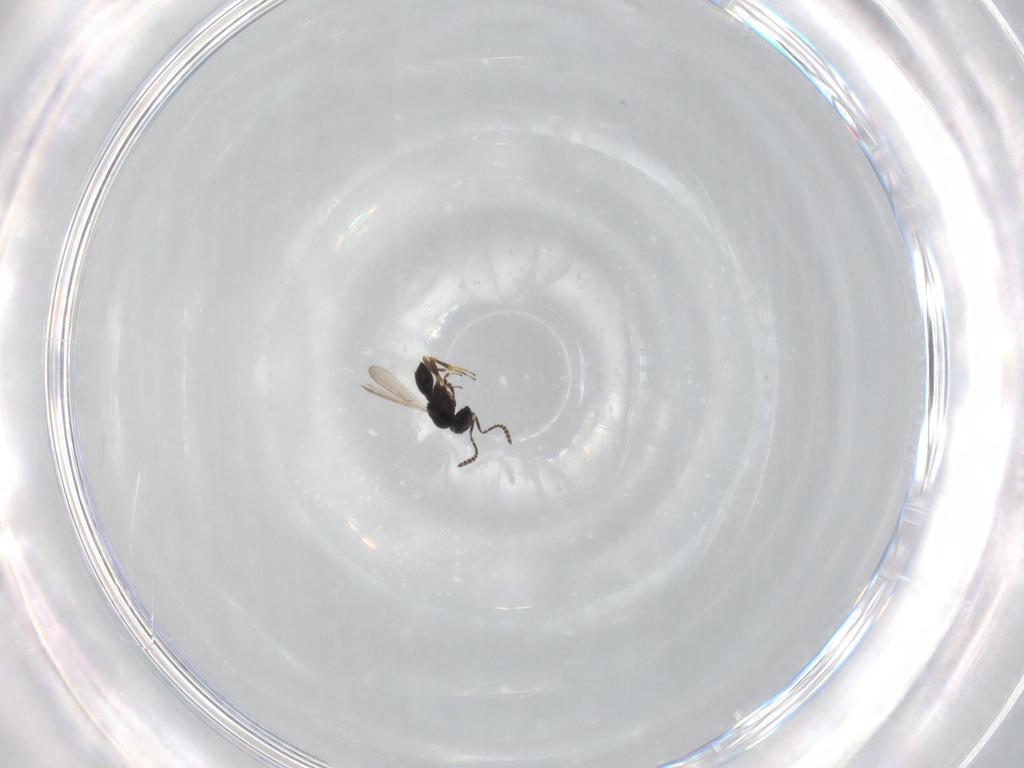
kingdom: Animalia
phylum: Arthropoda
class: Insecta
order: Hymenoptera
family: Scelionidae
